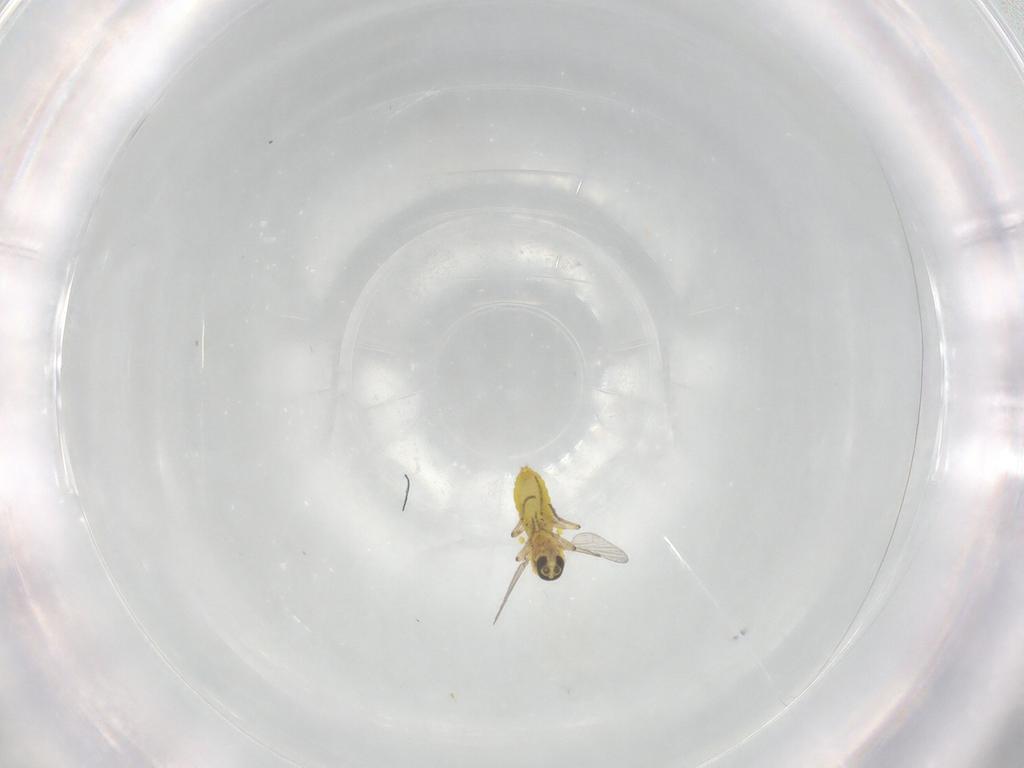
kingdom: Animalia
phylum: Arthropoda
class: Insecta
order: Diptera
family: Ceratopogonidae
